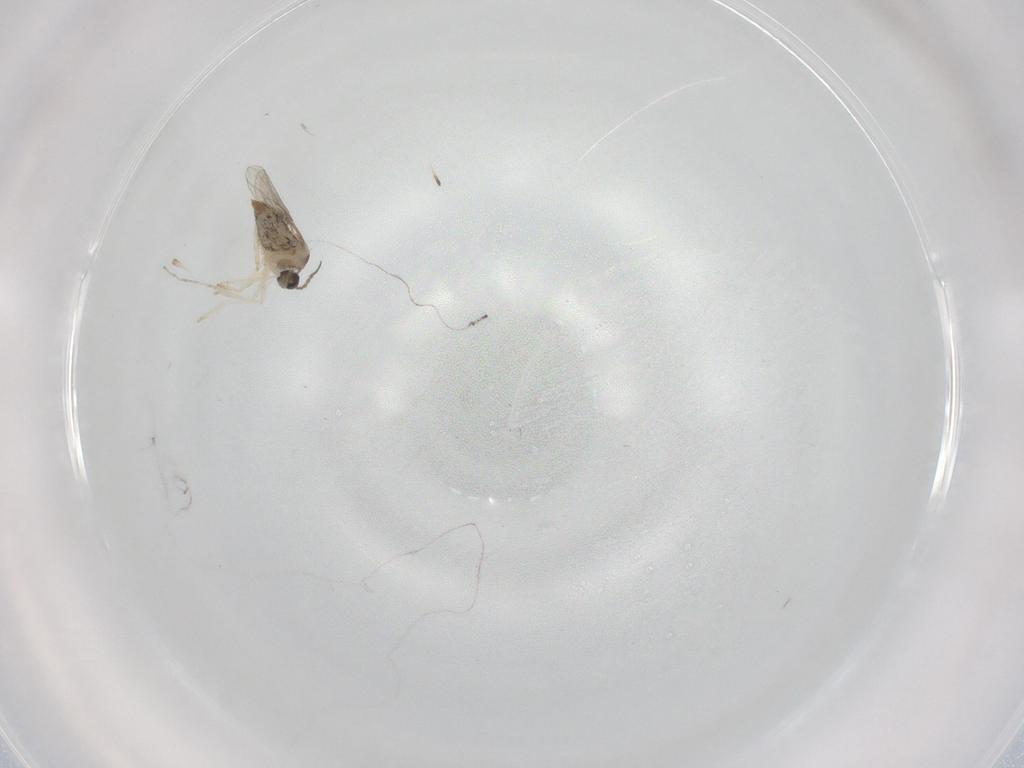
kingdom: Animalia
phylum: Arthropoda
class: Insecta
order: Diptera
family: Cecidomyiidae
